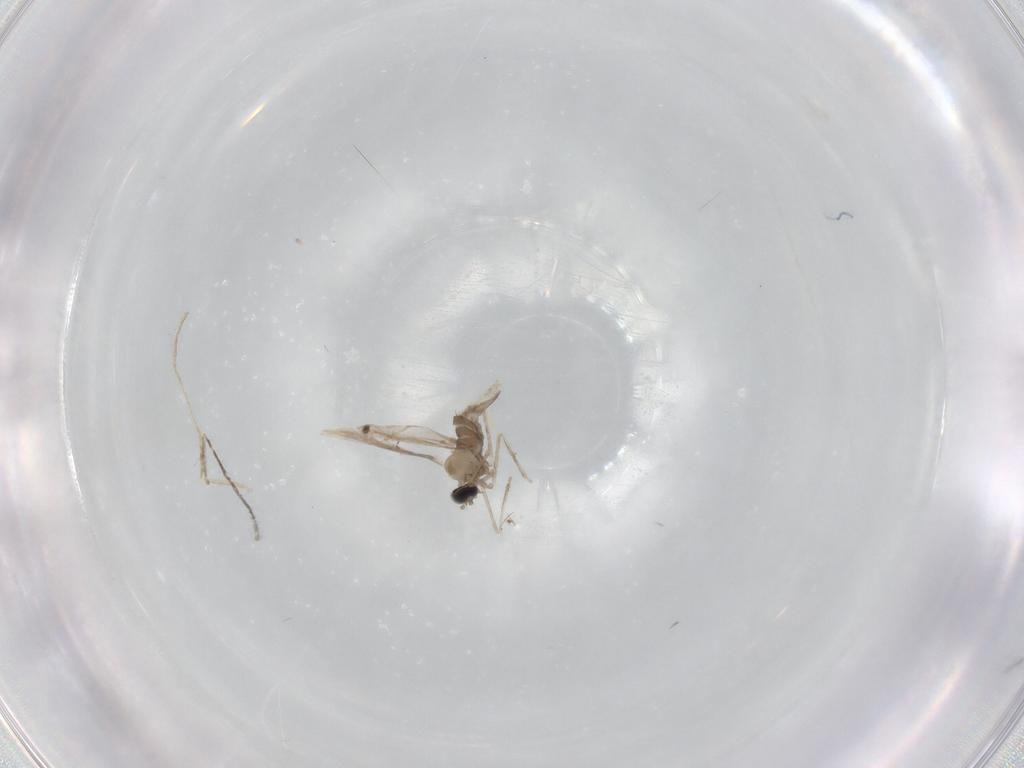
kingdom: Animalia
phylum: Arthropoda
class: Insecta
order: Diptera
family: Cecidomyiidae
